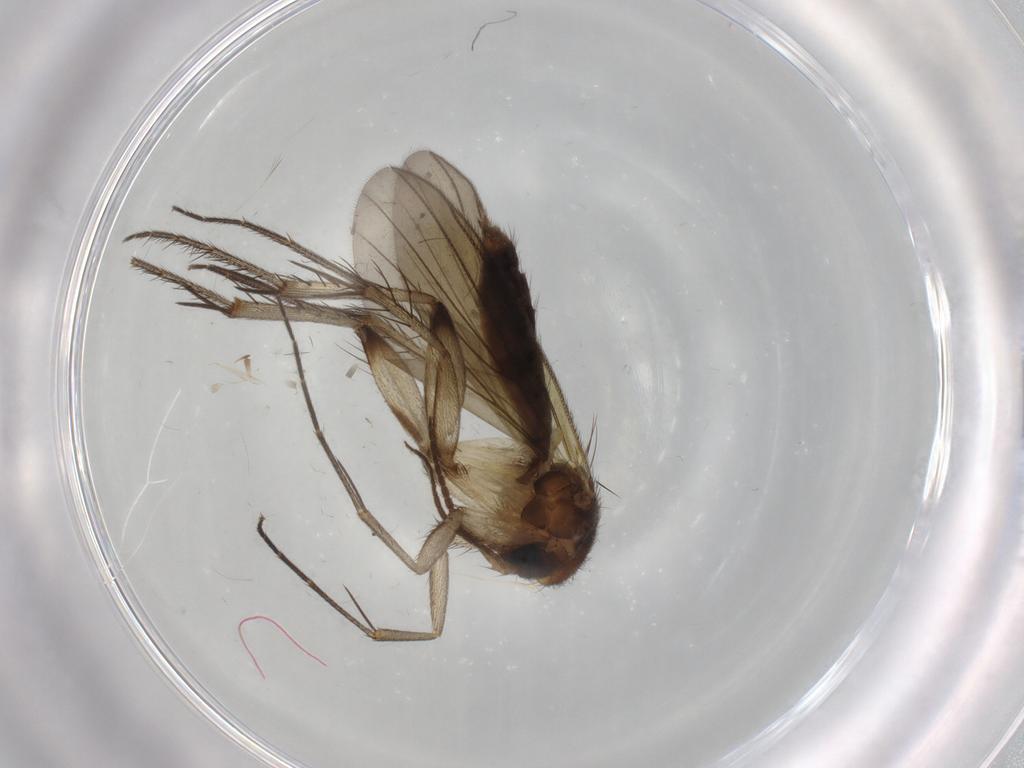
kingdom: Animalia
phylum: Arthropoda
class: Insecta
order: Diptera
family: Mycetophilidae
